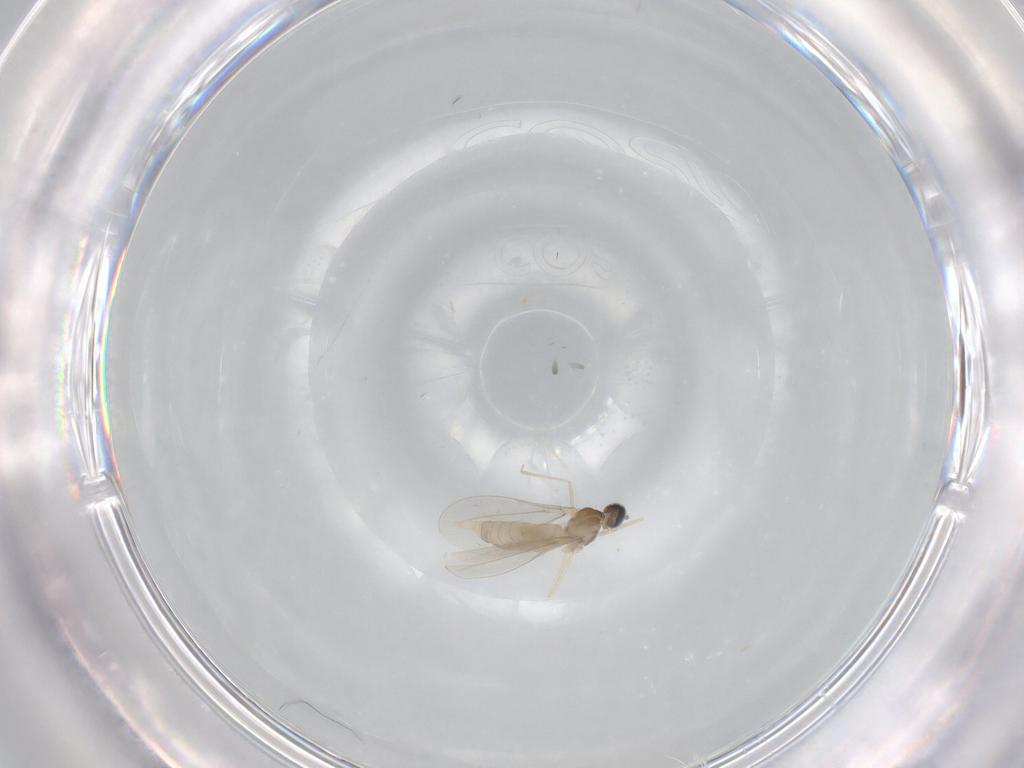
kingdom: Animalia
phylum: Arthropoda
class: Insecta
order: Diptera
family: Cecidomyiidae
